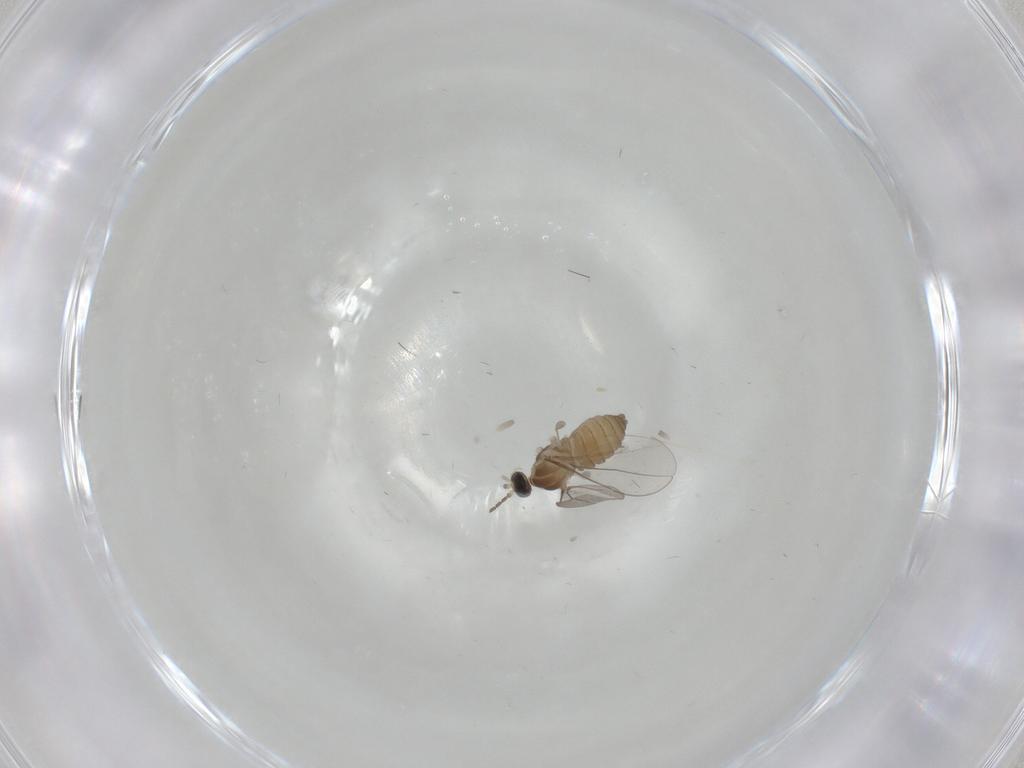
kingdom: Animalia
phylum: Arthropoda
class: Insecta
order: Diptera
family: Cecidomyiidae
